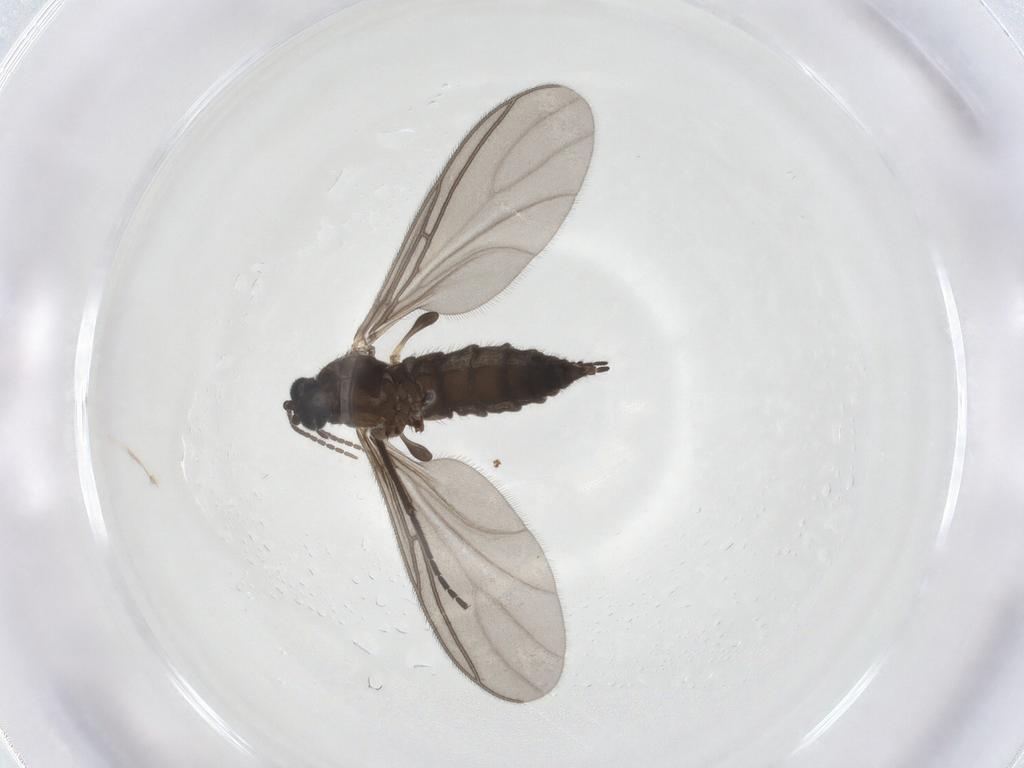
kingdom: Animalia
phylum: Arthropoda
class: Insecta
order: Diptera
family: Sciaridae
